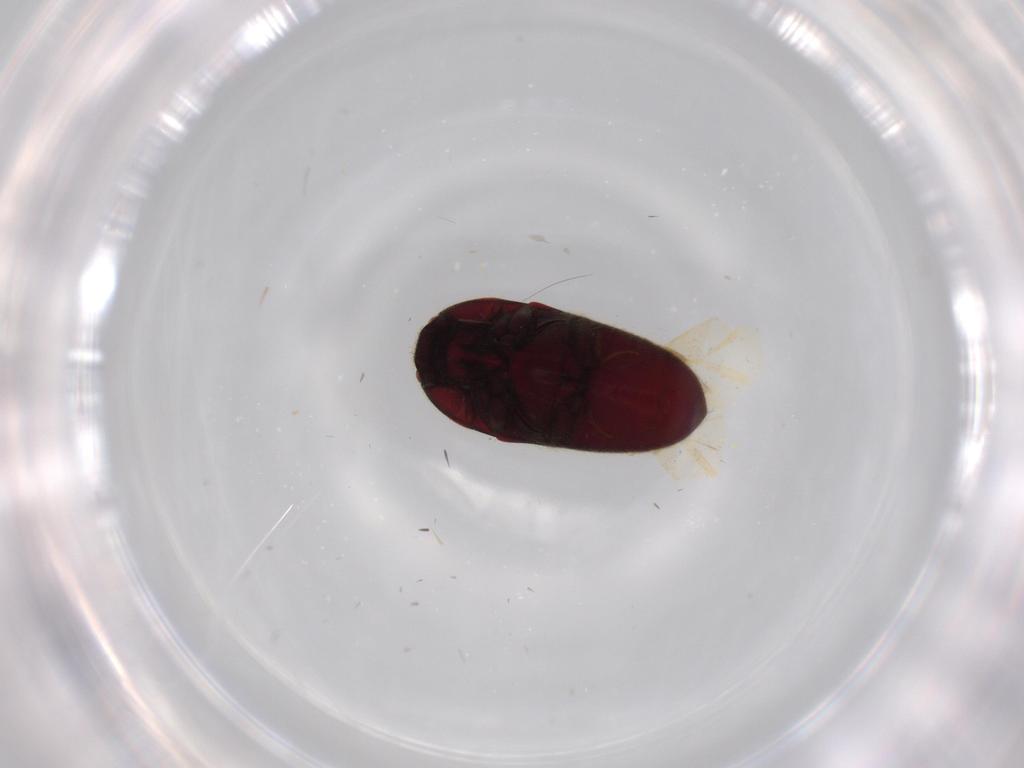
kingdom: Animalia
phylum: Arthropoda
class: Insecta
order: Coleoptera
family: Throscidae
